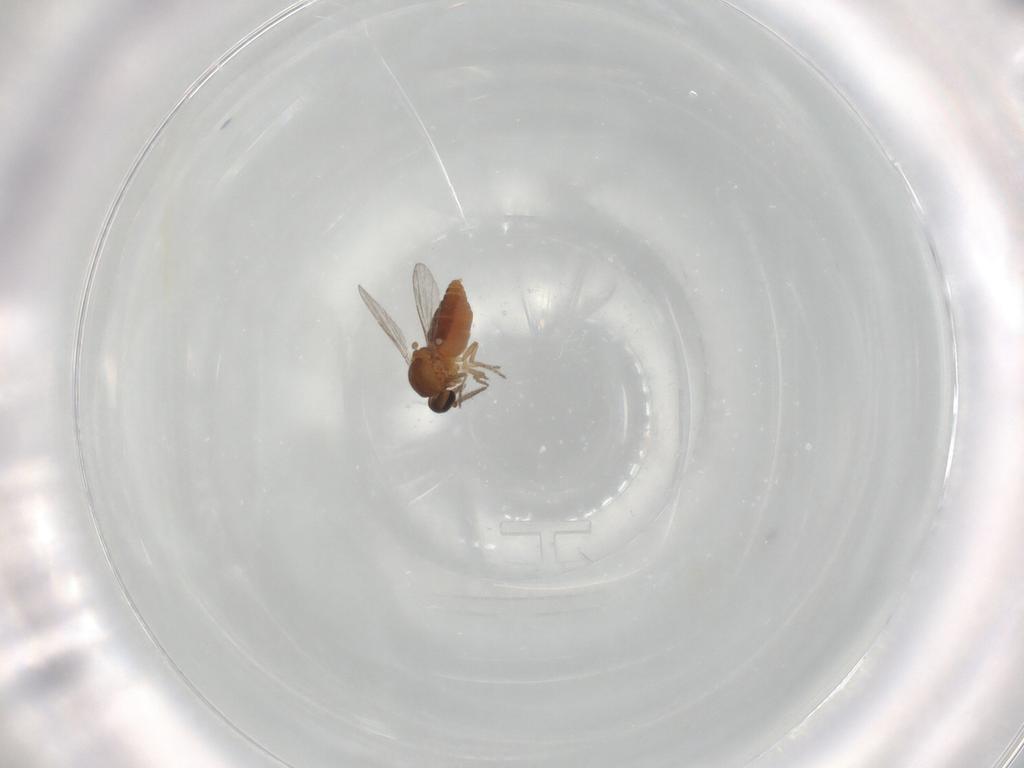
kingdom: Animalia
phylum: Arthropoda
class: Insecta
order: Diptera
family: Ceratopogonidae
